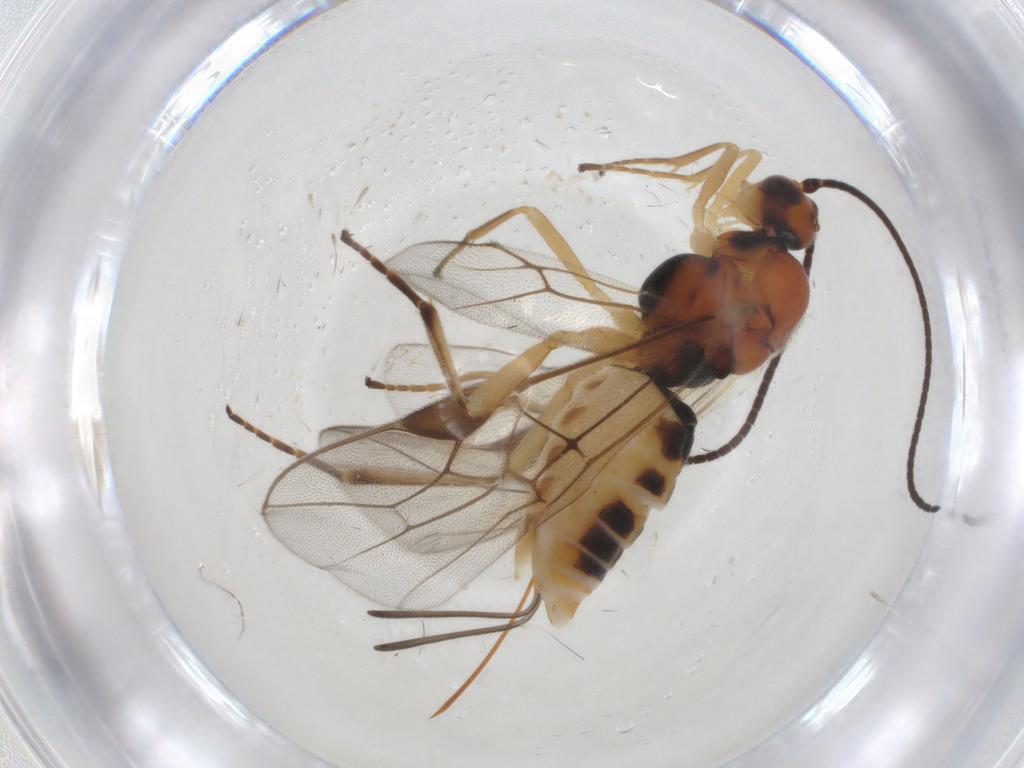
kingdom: Animalia
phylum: Arthropoda
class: Insecta
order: Hymenoptera
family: Braconidae
